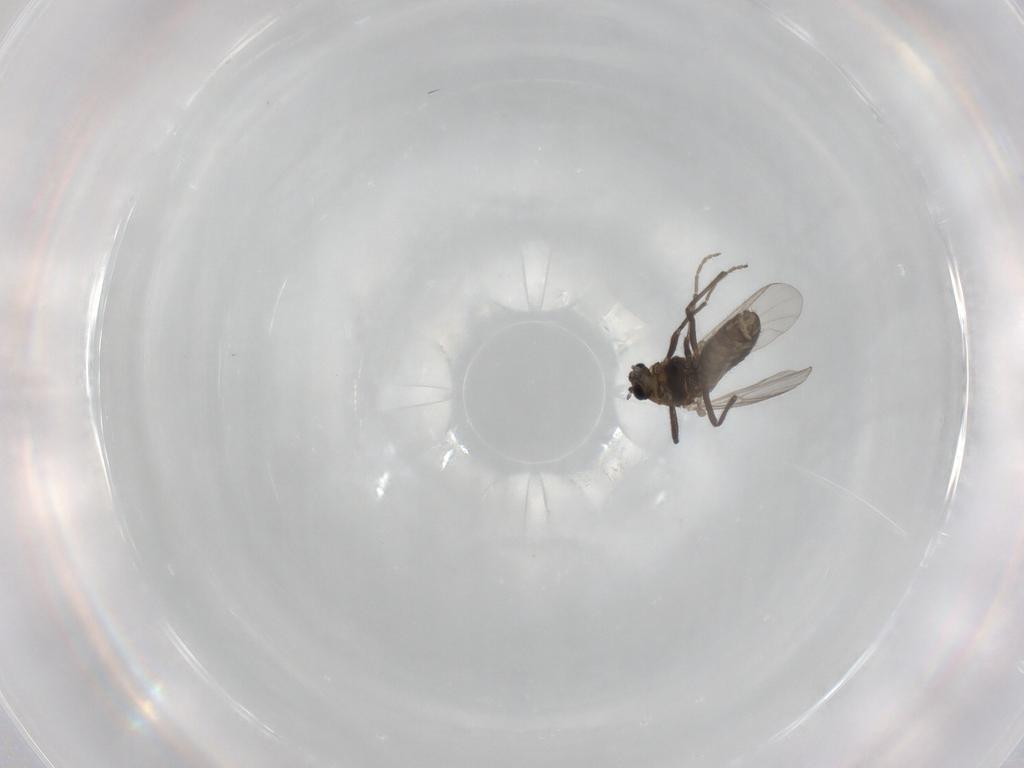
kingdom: Animalia
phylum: Arthropoda
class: Insecta
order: Diptera
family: Chironomidae
